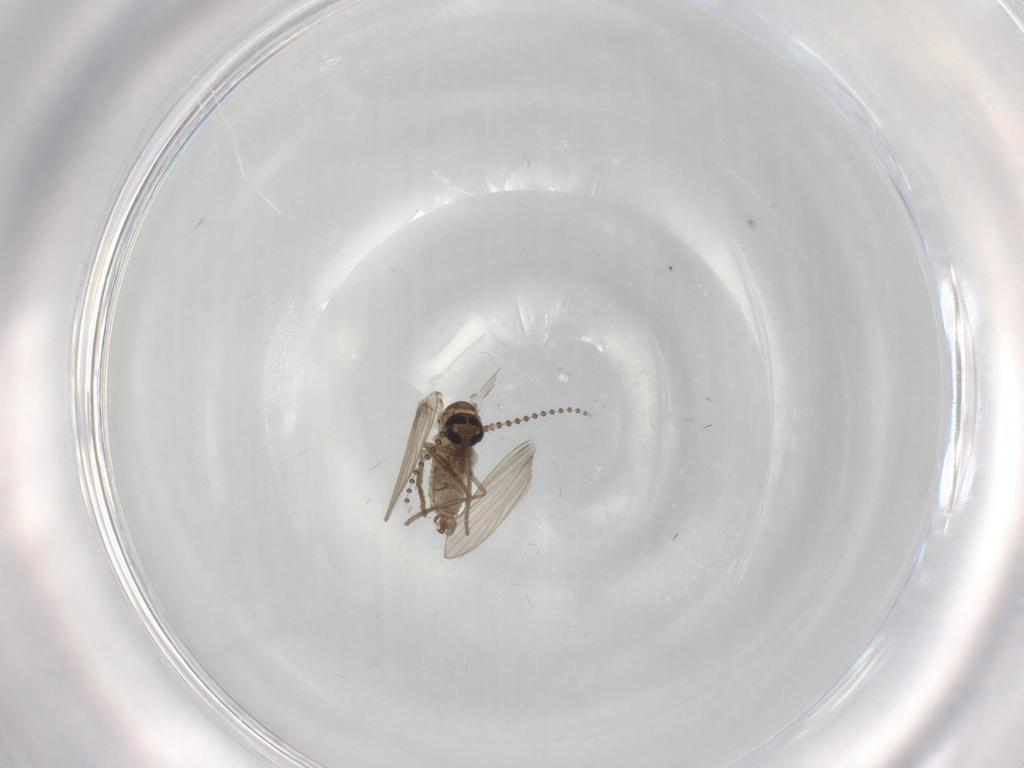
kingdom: Animalia
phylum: Arthropoda
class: Insecta
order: Diptera
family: Psychodidae
